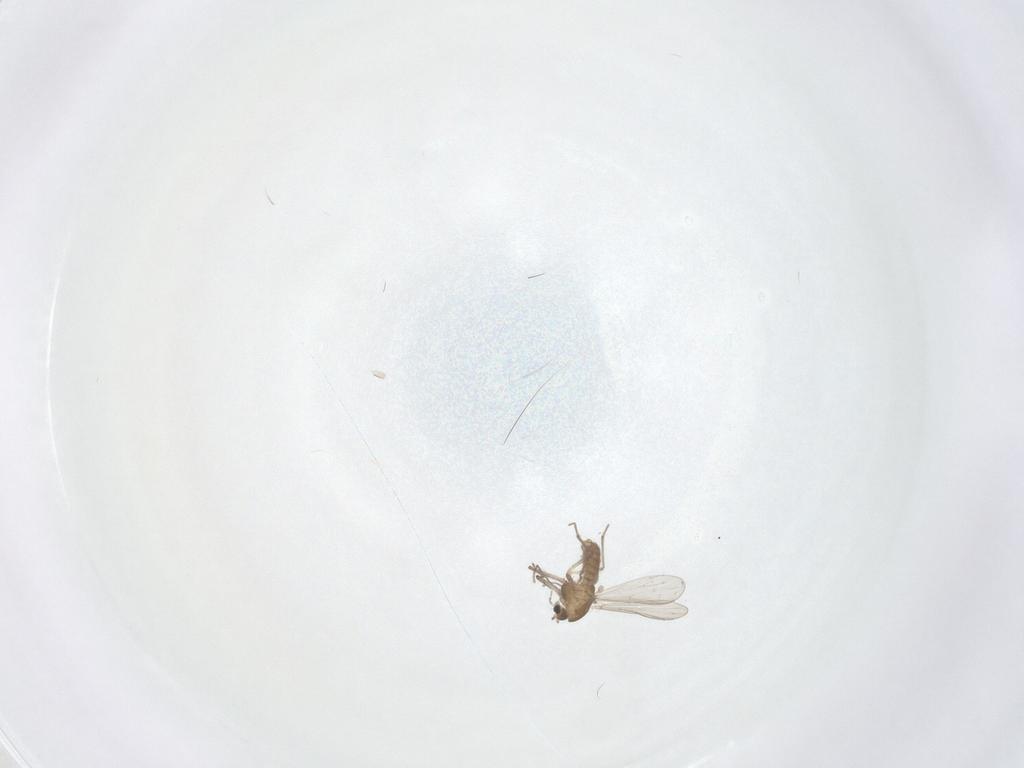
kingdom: Animalia
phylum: Arthropoda
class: Insecta
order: Diptera
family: Chironomidae
